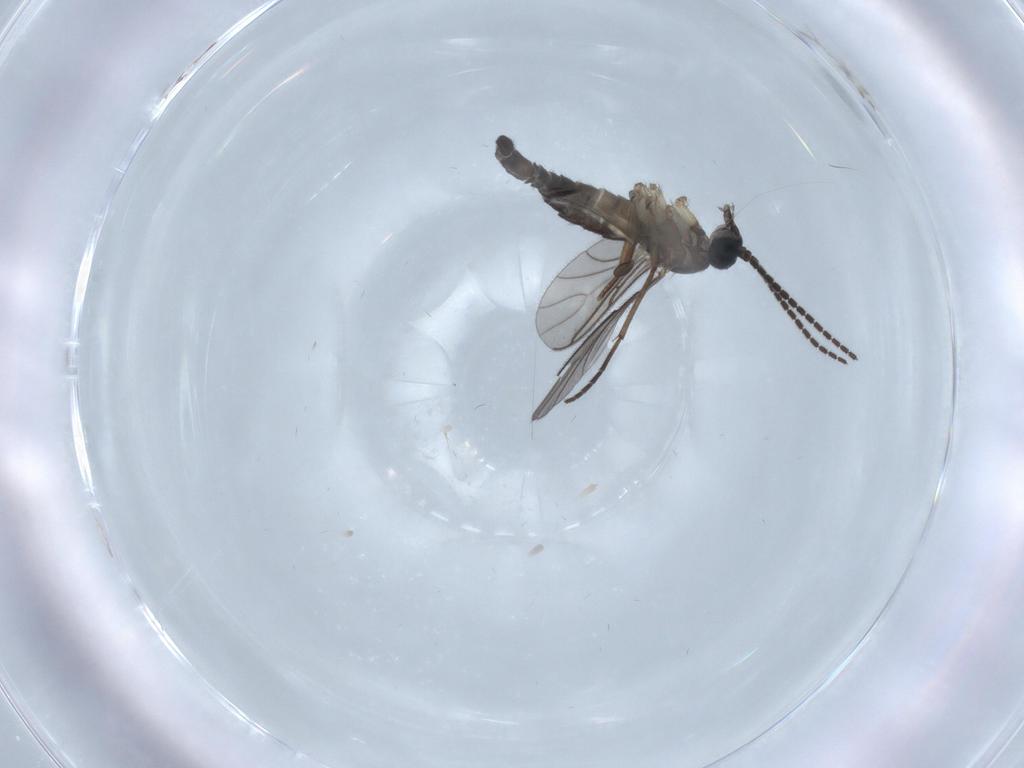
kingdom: Animalia
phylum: Arthropoda
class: Insecta
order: Diptera
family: Sciaridae
